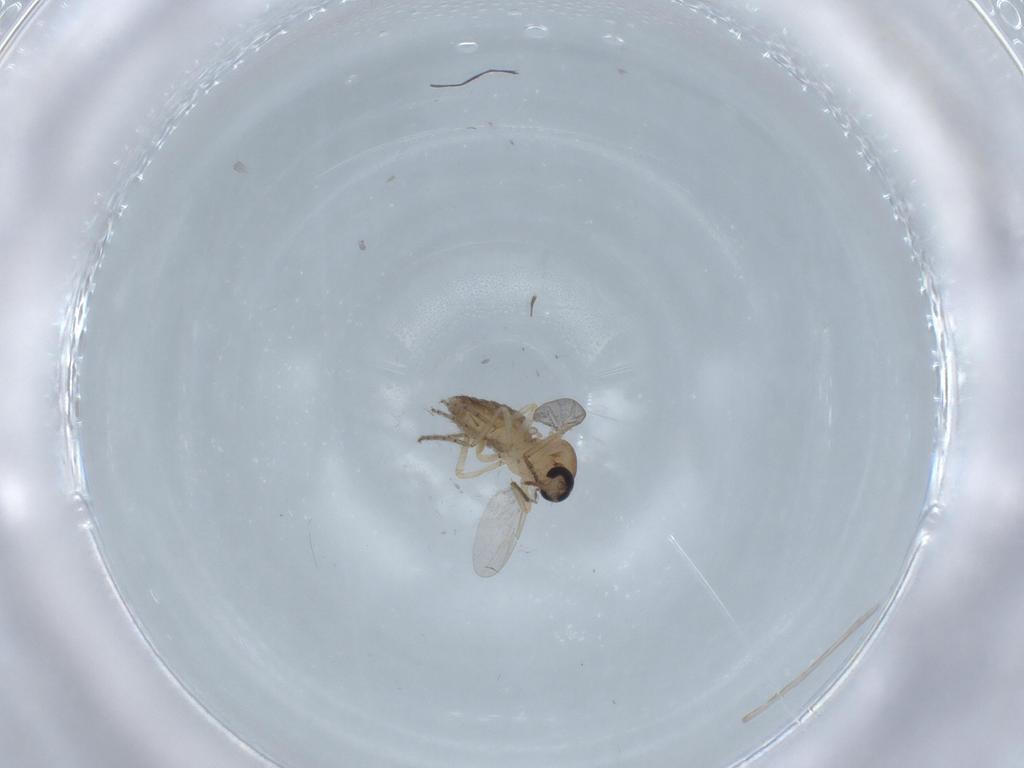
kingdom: Animalia
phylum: Arthropoda
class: Insecta
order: Diptera
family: Ceratopogonidae
